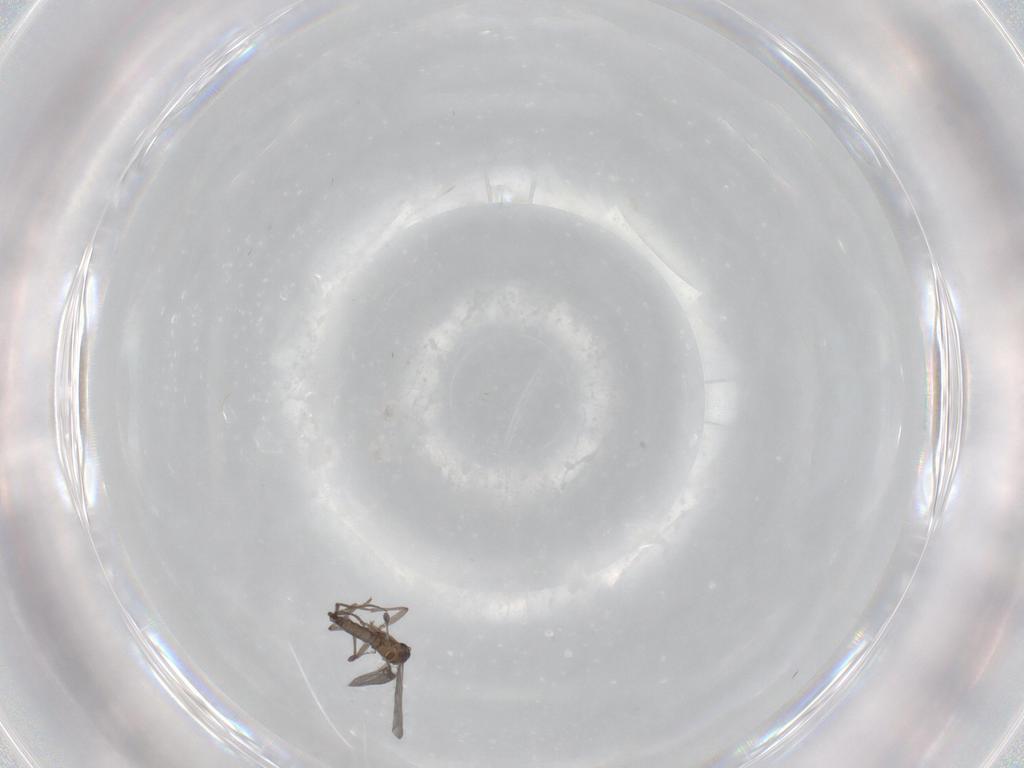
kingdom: Animalia
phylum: Arthropoda
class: Insecta
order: Diptera
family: Sciaridae
